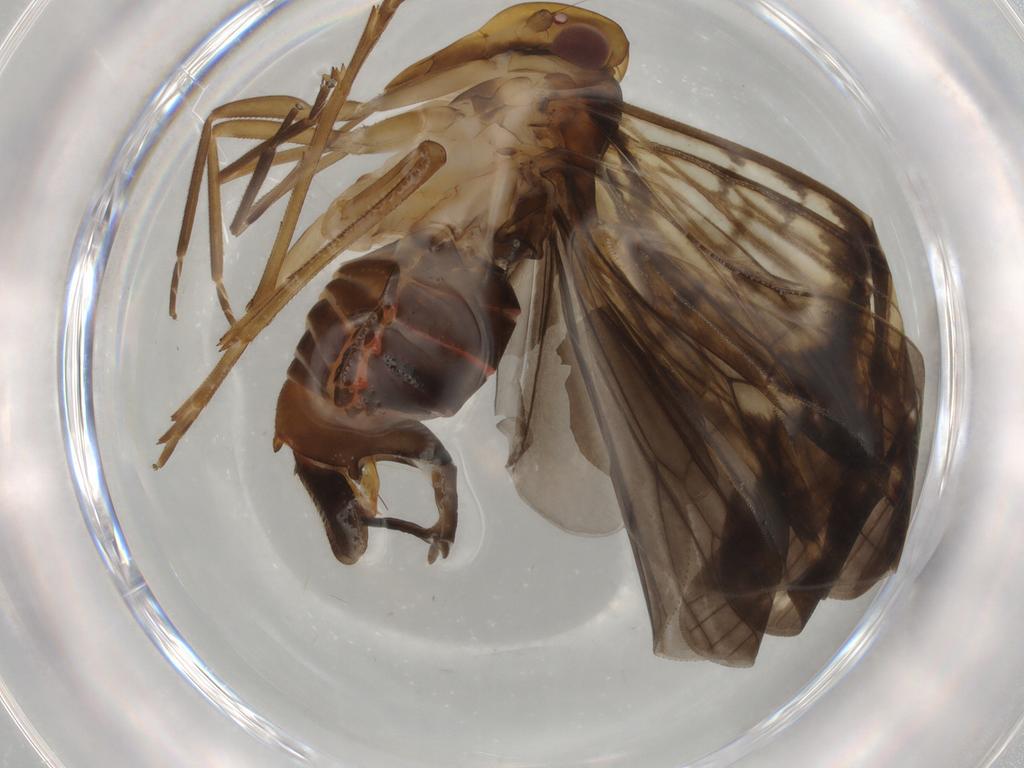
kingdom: Animalia
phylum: Arthropoda
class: Insecta
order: Hemiptera
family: Cixiidae
